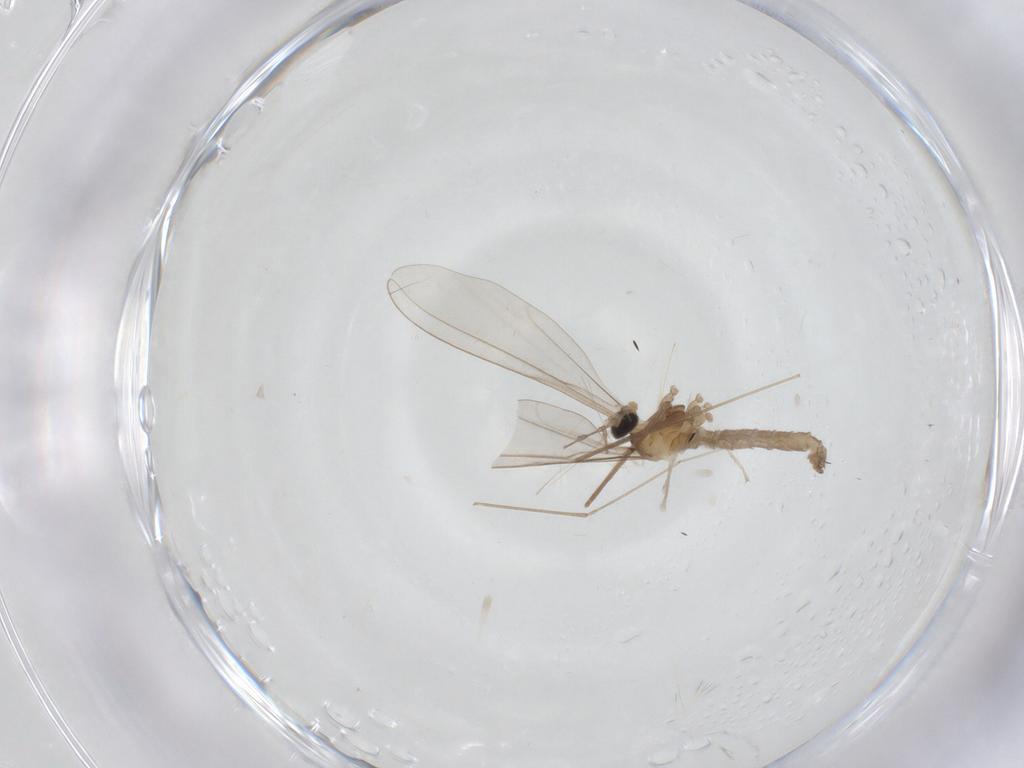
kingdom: Animalia
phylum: Arthropoda
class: Insecta
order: Diptera
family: Cecidomyiidae
